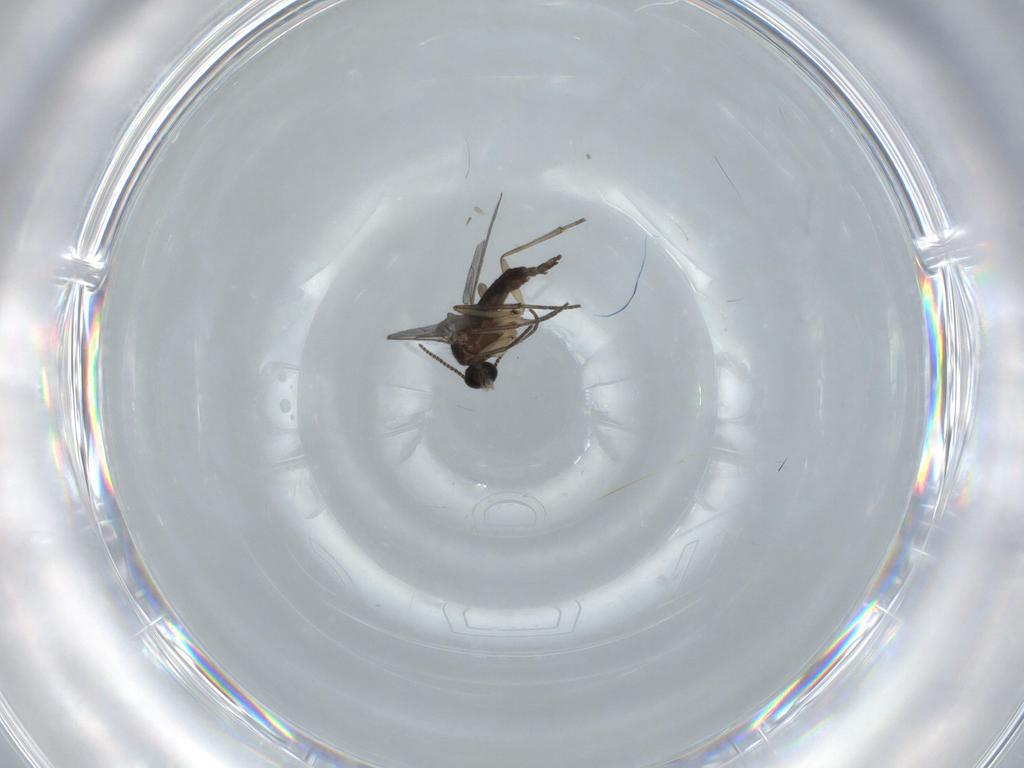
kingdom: Animalia
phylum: Arthropoda
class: Insecta
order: Diptera
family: Sciaridae
